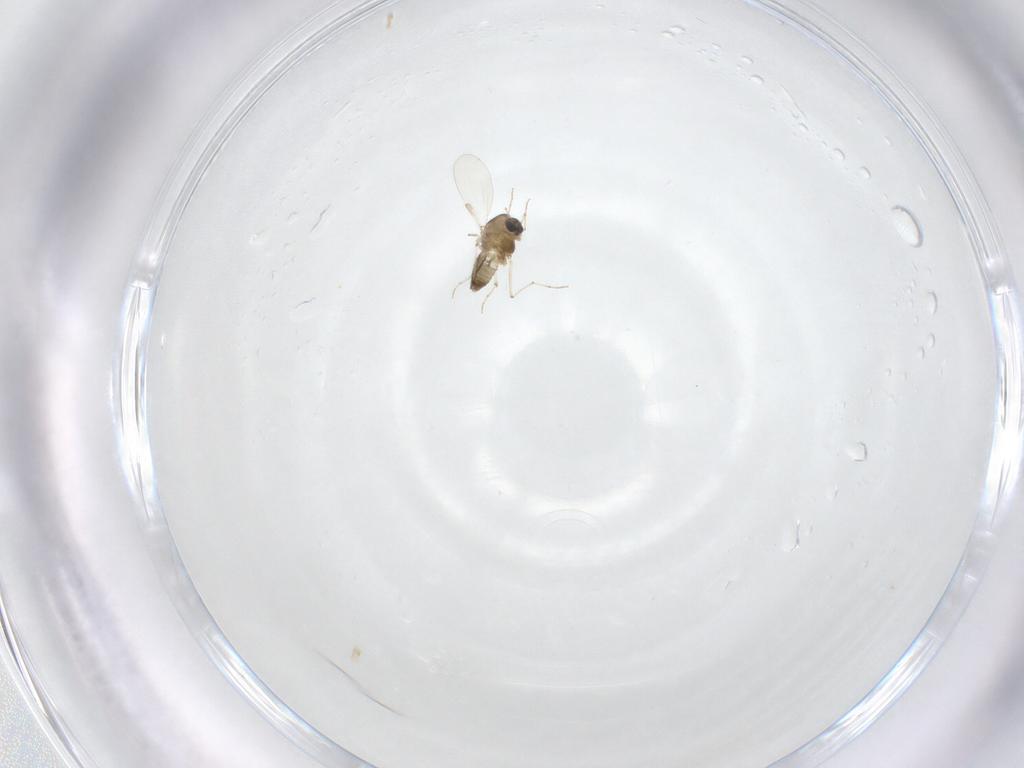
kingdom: Animalia
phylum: Arthropoda
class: Insecta
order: Diptera
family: Chironomidae
